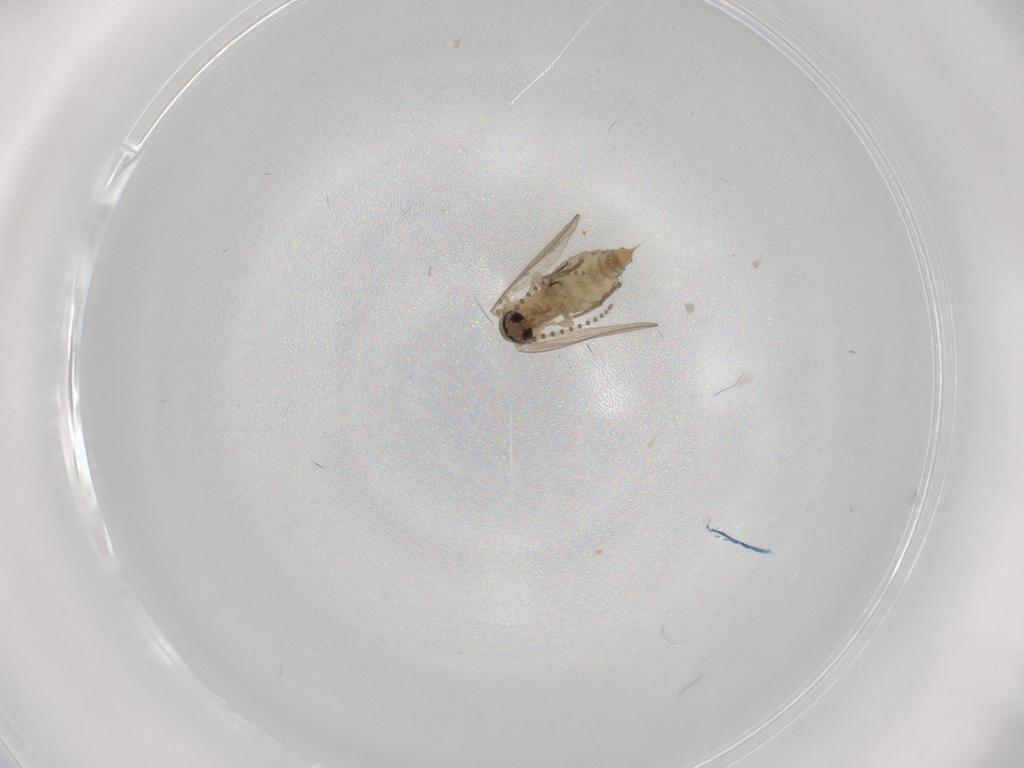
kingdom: Animalia
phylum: Arthropoda
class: Insecta
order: Diptera
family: Psychodidae
